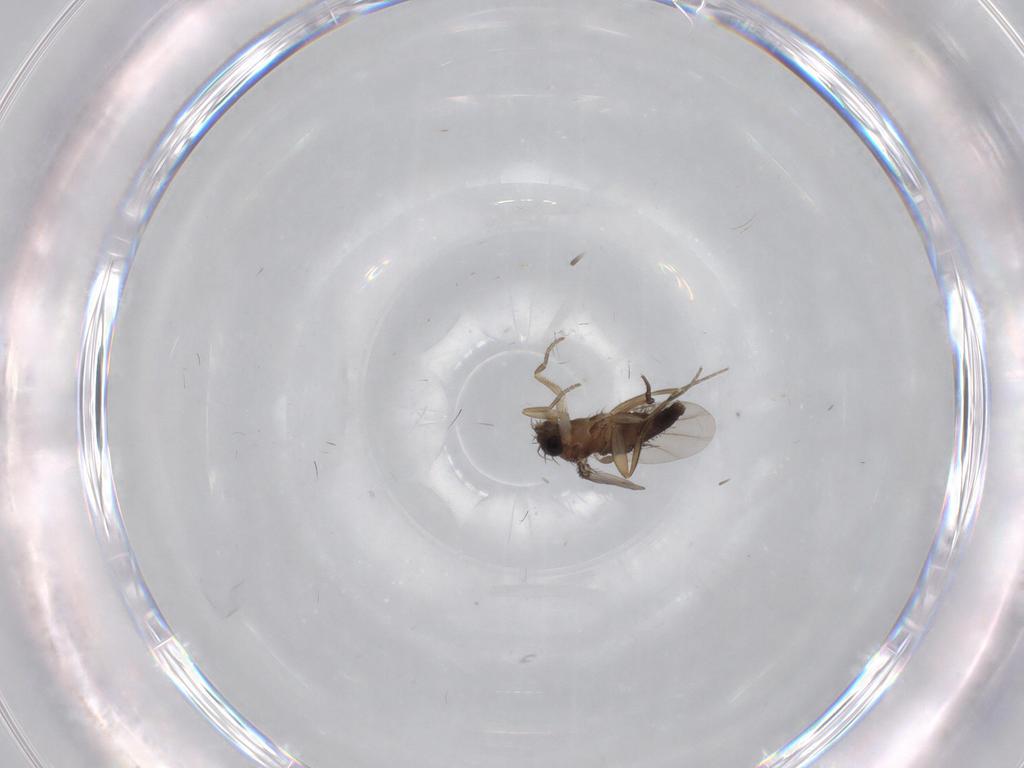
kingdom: Animalia
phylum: Arthropoda
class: Insecta
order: Diptera
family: Phoridae
